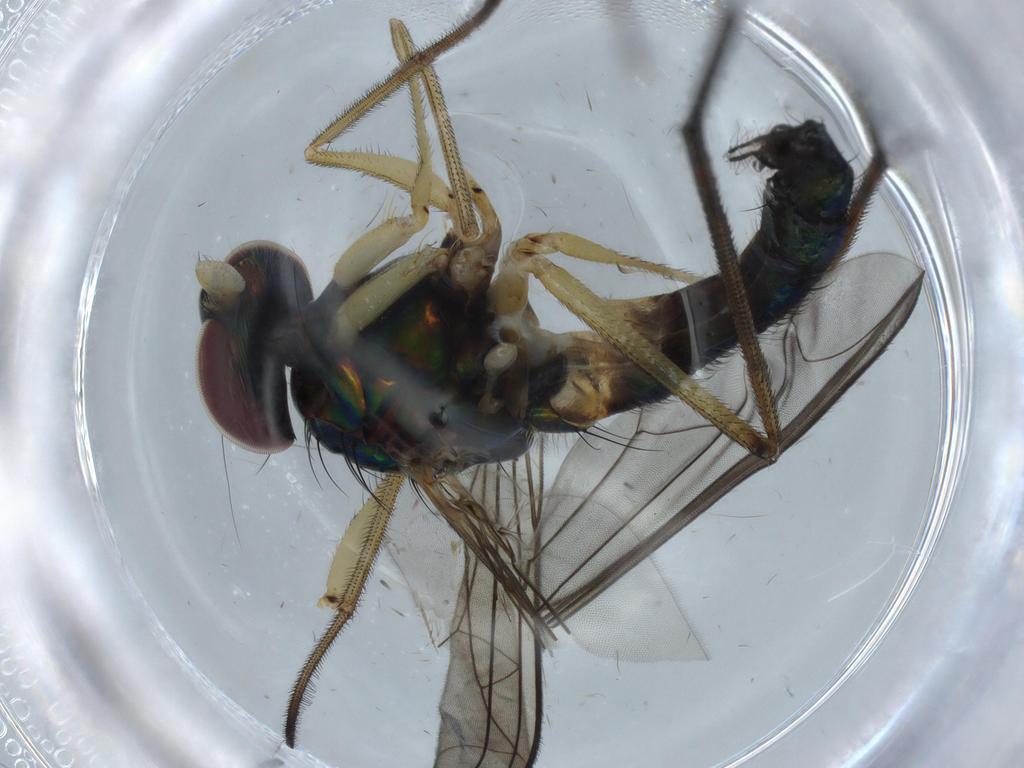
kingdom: Animalia
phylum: Arthropoda
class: Insecta
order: Diptera
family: Dolichopodidae
